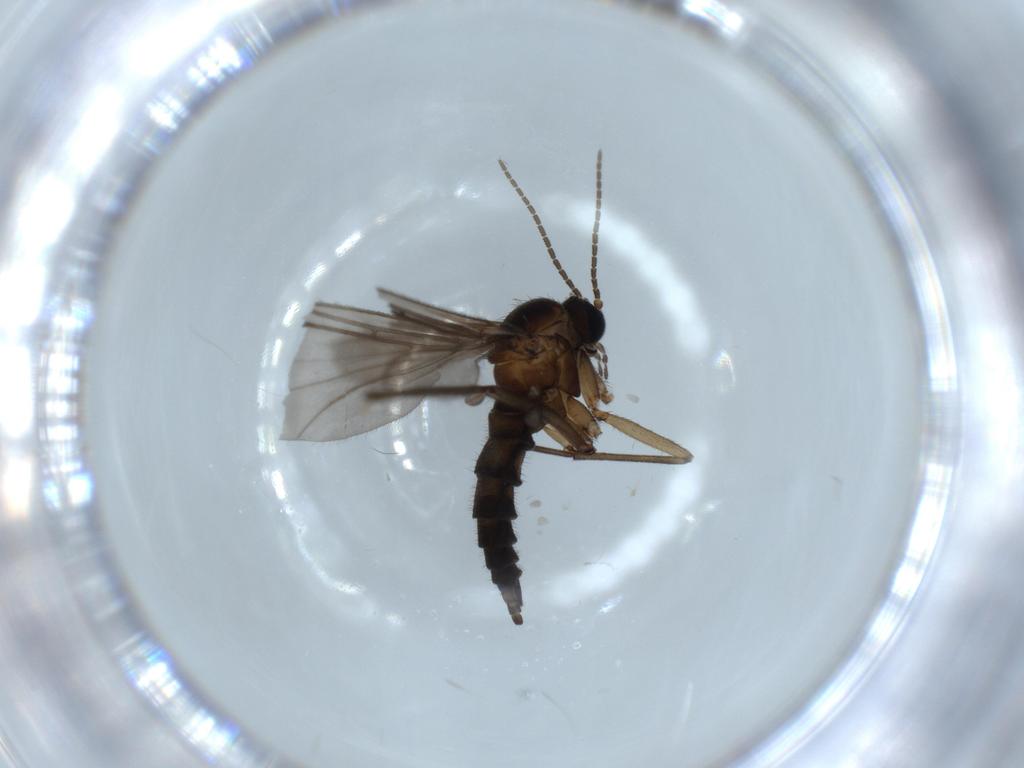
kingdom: Animalia
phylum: Arthropoda
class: Insecta
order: Diptera
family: Sciaridae
